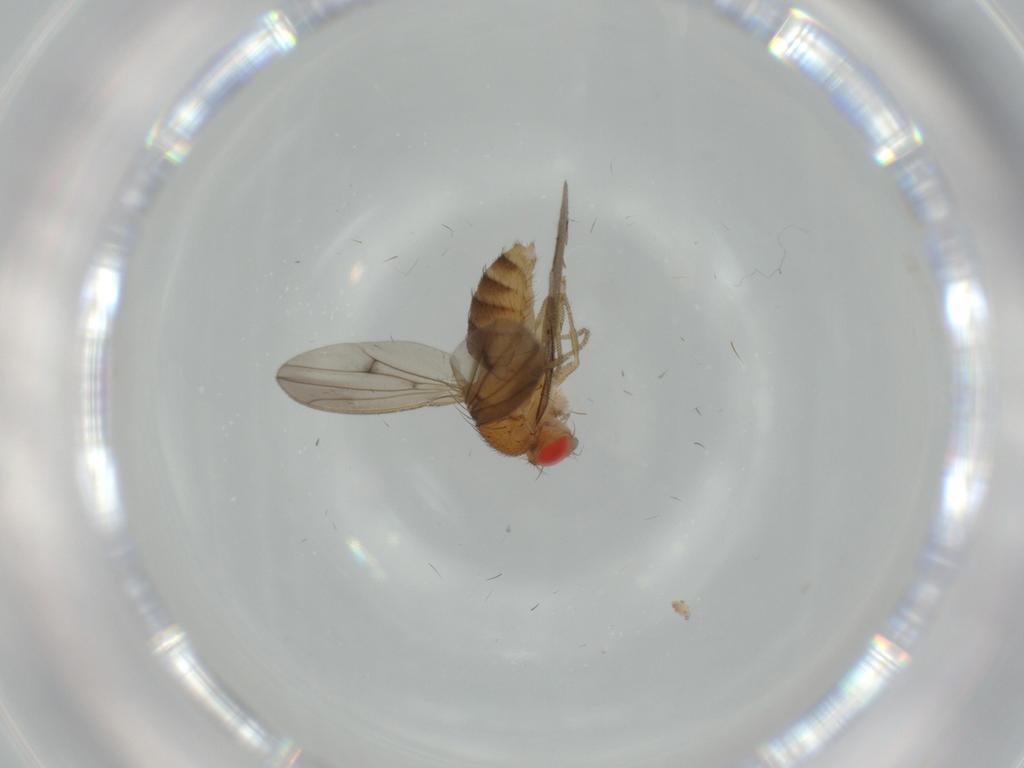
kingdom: Animalia
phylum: Arthropoda
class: Insecta
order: Diptera
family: Drosophilidae
